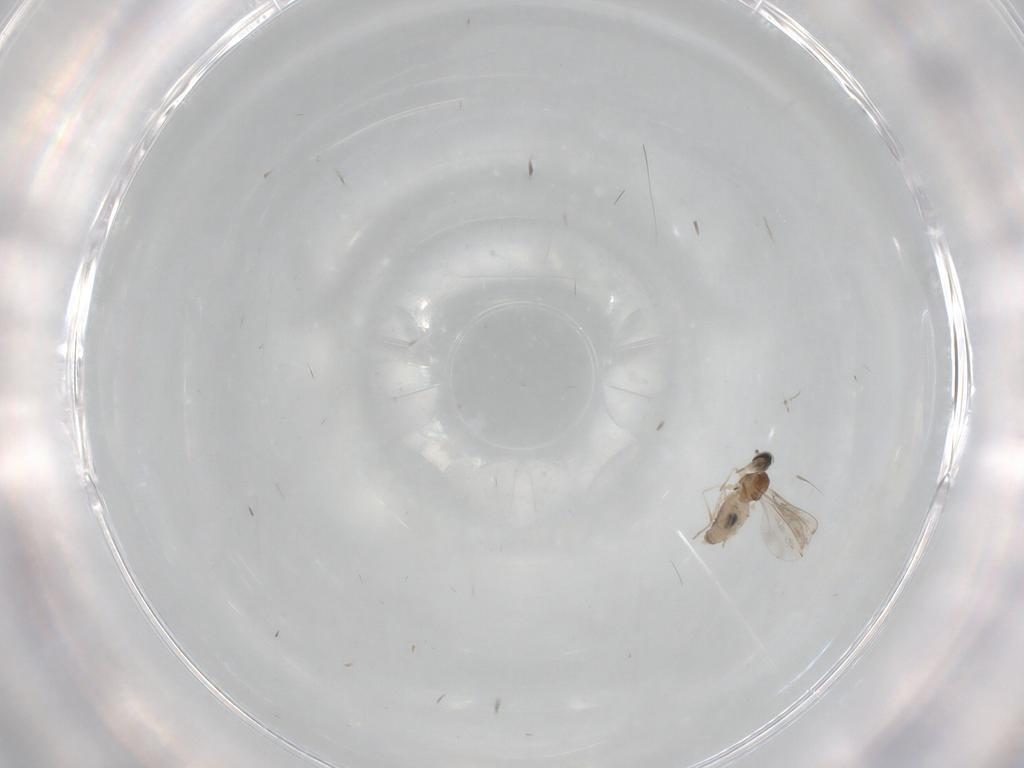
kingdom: Animalia
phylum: Arthropoda
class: Insecta
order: Diptera
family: Cecidomyiidae
